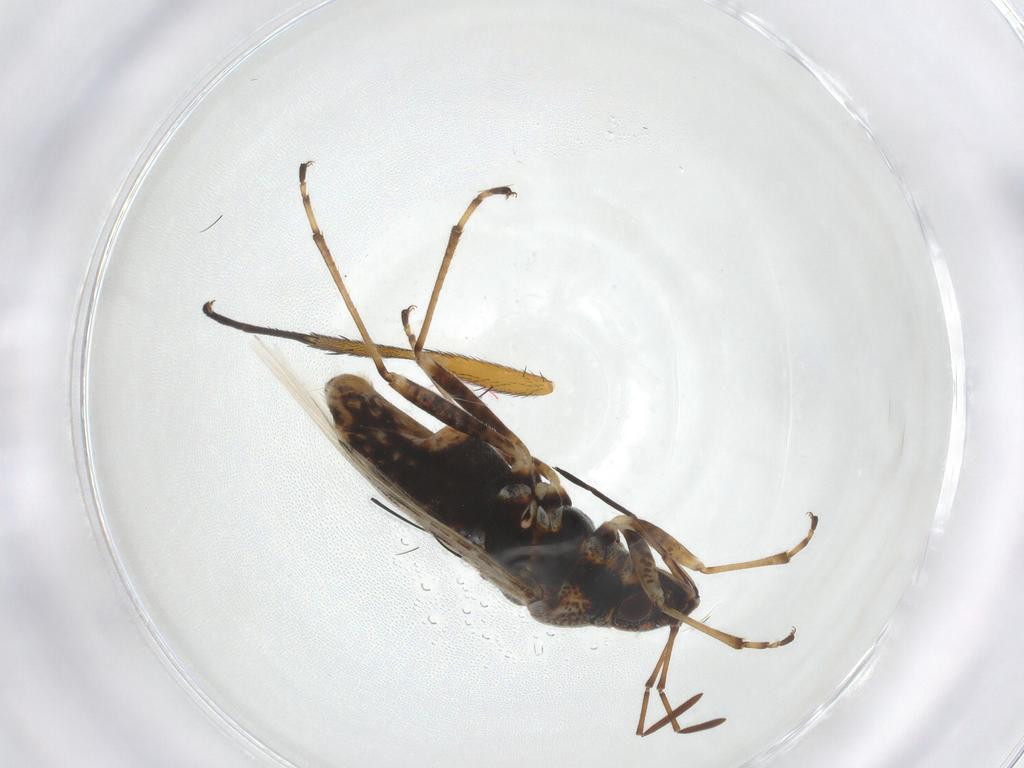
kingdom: Animalia
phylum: Arthropoda
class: Insecta
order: Hemiptera
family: Lygaeidae
